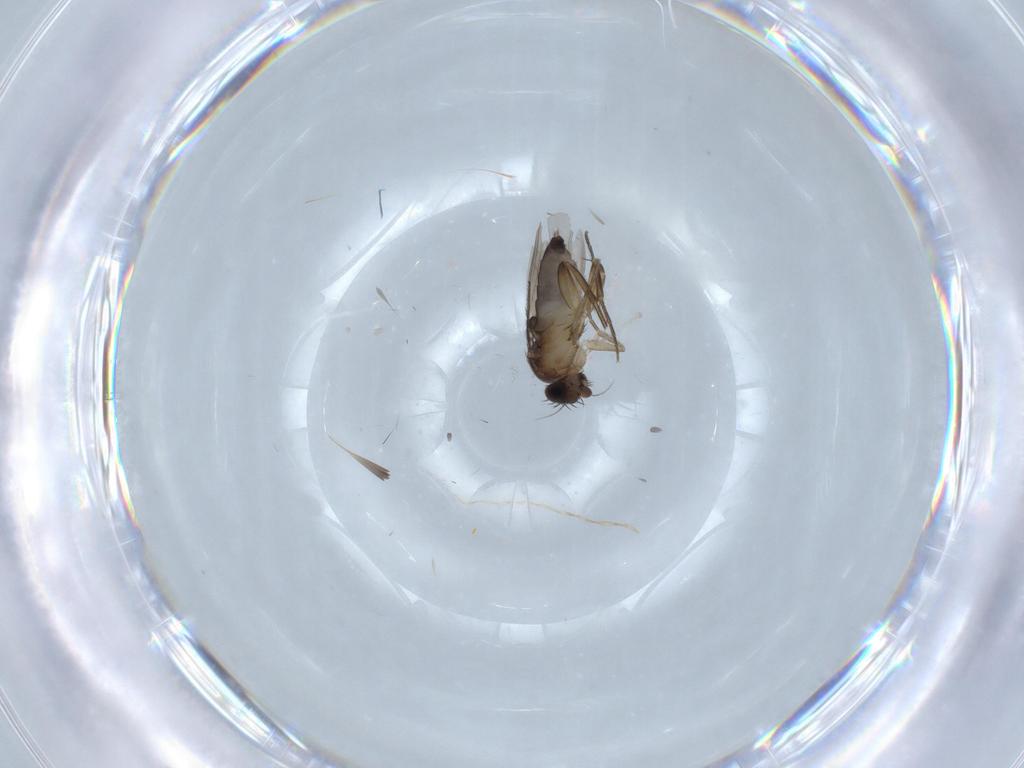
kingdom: Animalia
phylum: Arthropoda
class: Insecta
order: Diptera
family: Phoridae
